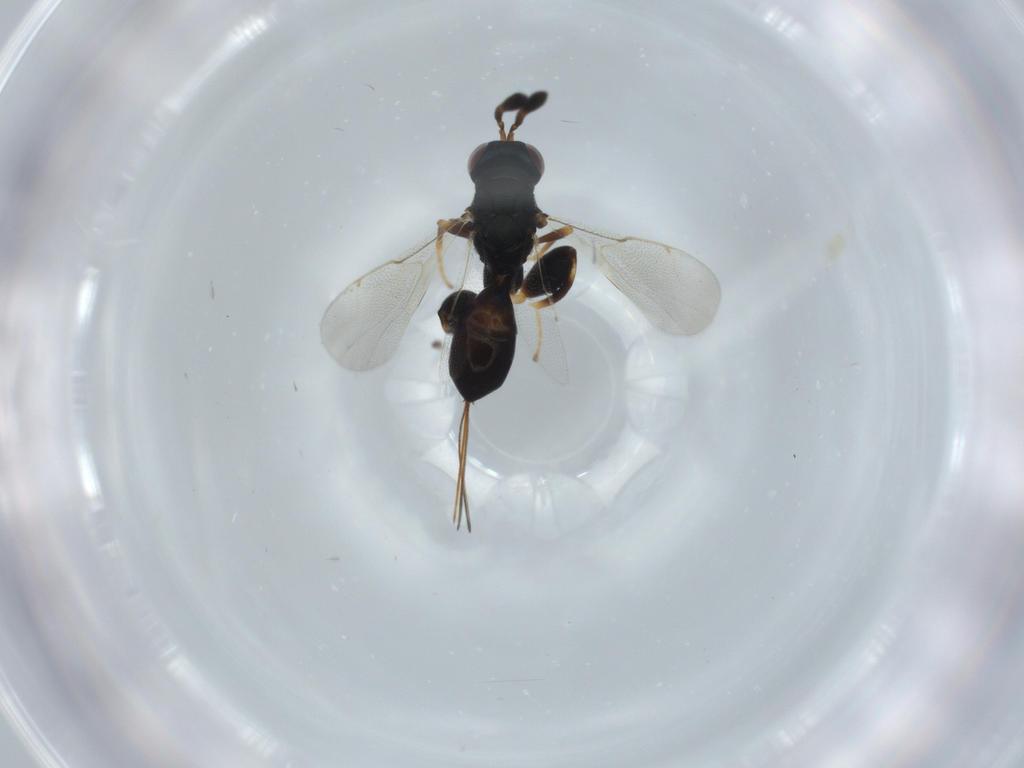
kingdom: Animalia
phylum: Arthropoda
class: Insecta
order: Hymenoptera
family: Torymidae
